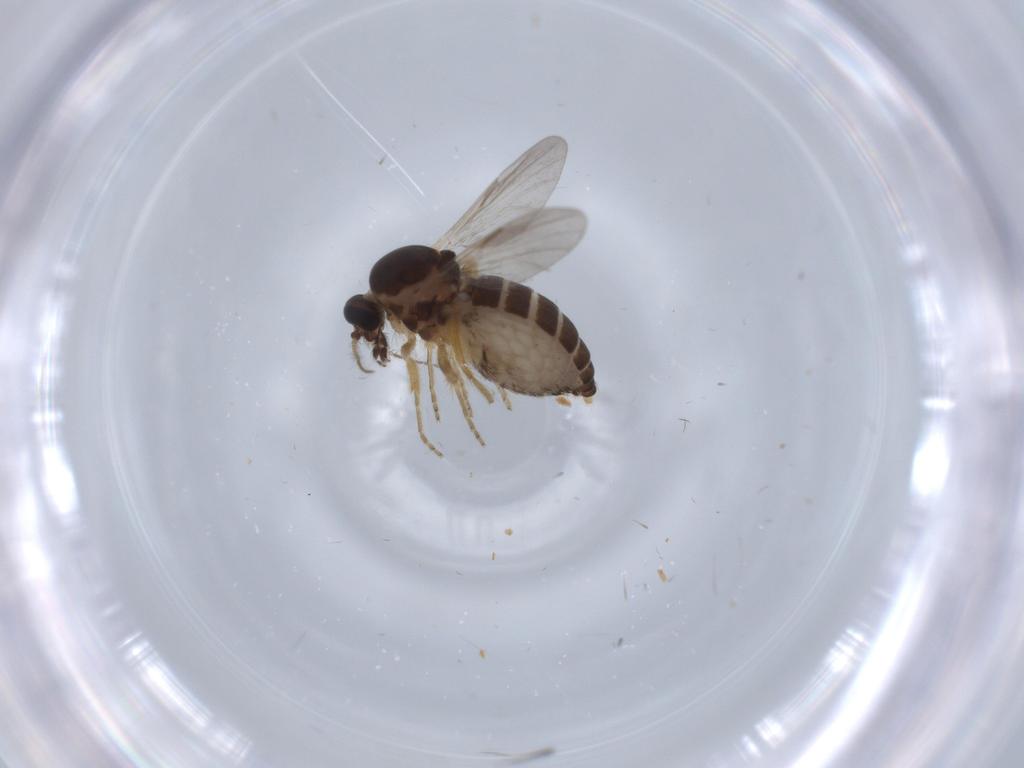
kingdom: Animalia
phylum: Arthropoda
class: Insecta
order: Diptera
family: Ceratopogonidae
